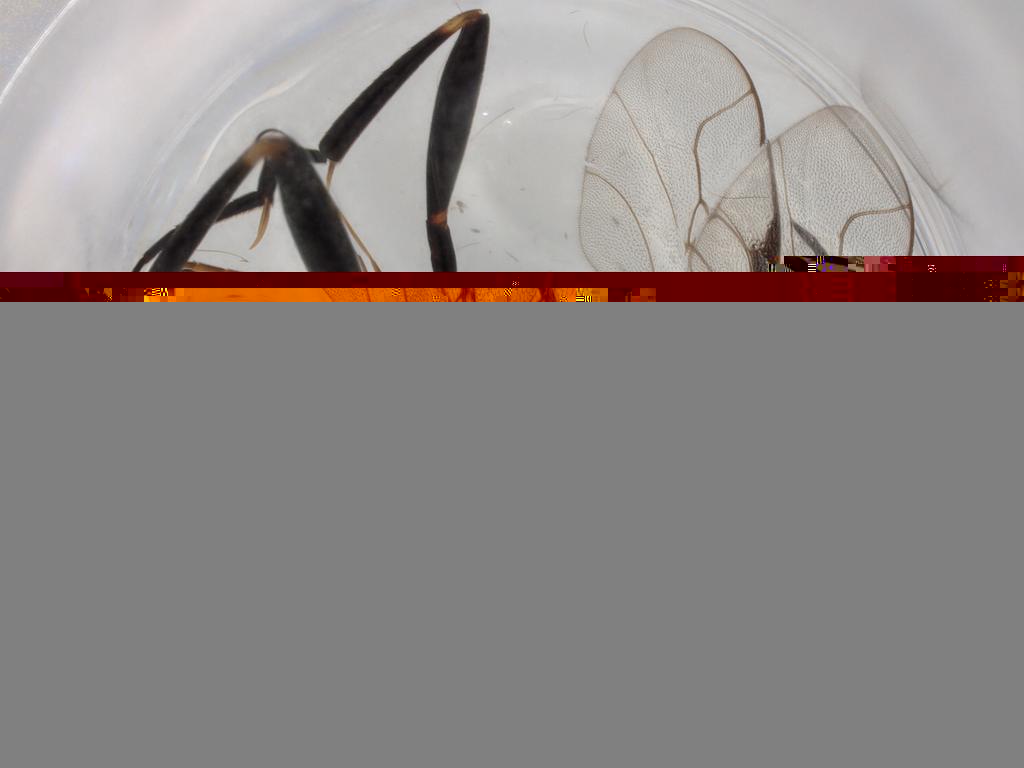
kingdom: Animalia
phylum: Arthropoda
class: Insecta
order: Hymenoptera
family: Evaniidae
